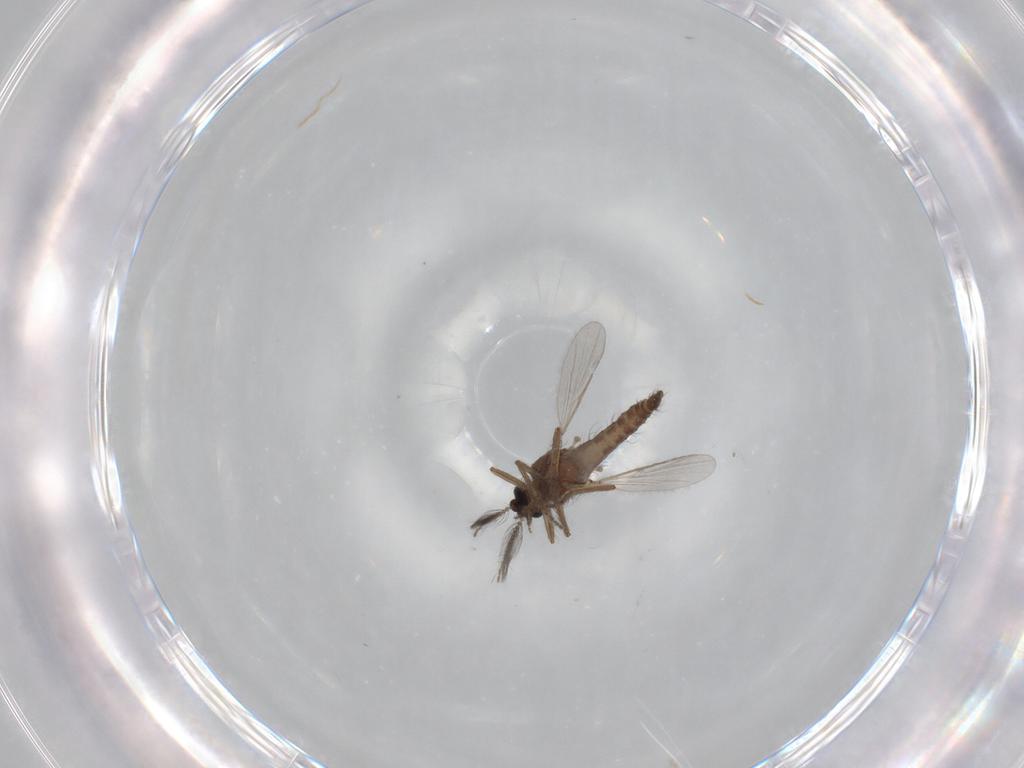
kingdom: Animalia
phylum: Arthropoda
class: Insecta
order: Diptera
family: Ceratopogonidae
